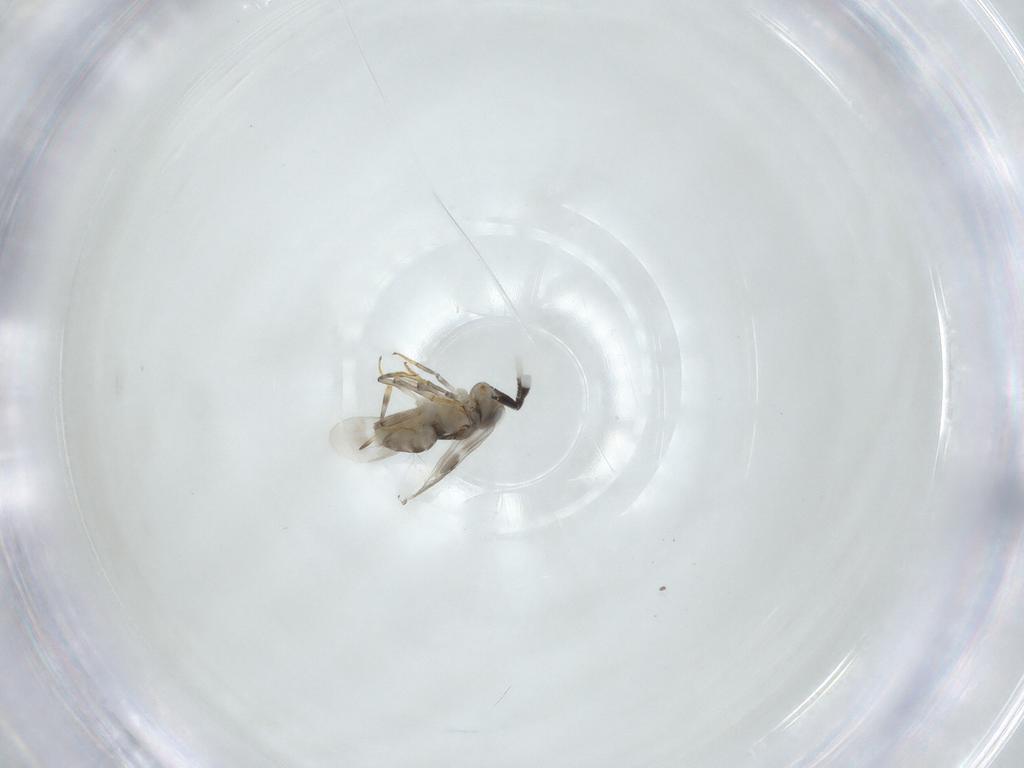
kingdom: Animalia
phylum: Arthropoda
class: Insecta
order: Hymenoptera
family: Encyrtidae
